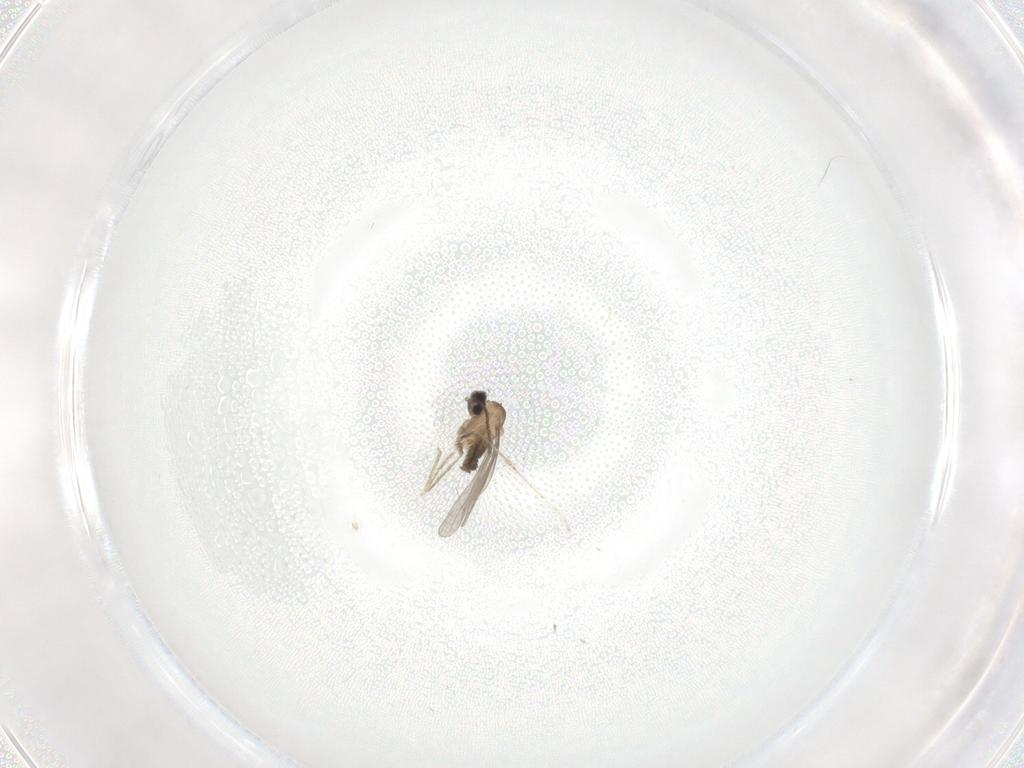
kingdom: Animalia
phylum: Arthropoda
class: Insecta
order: Diptera
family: Cecidomyiidae
